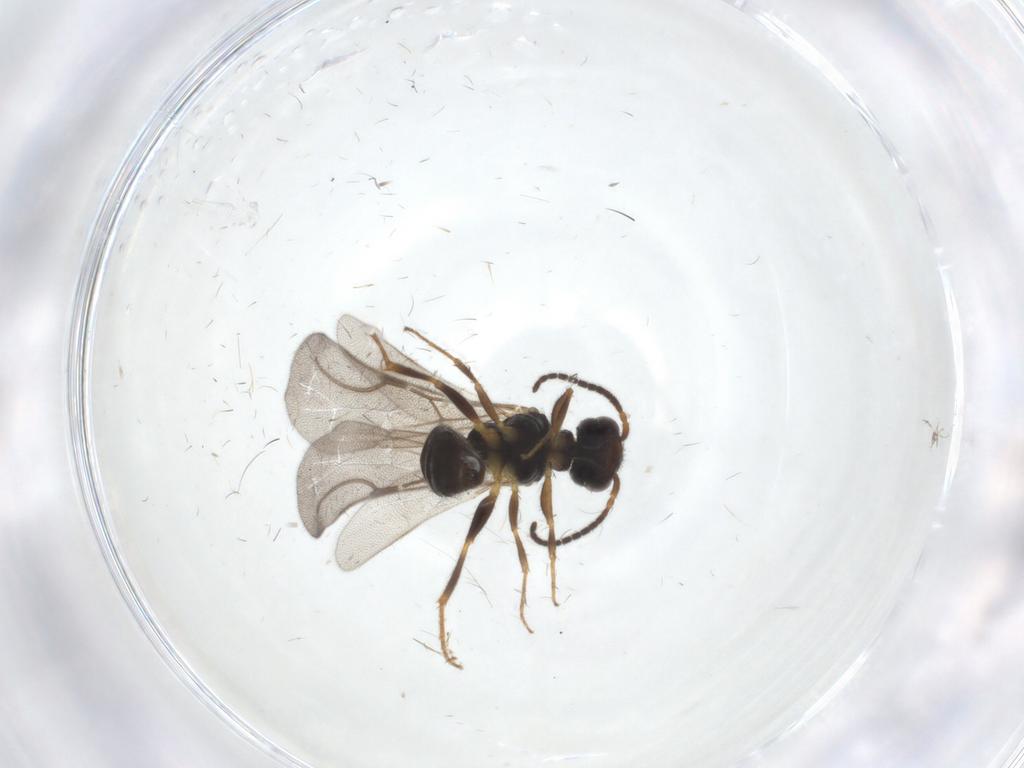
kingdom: Animalia
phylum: Arthropoda
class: Insecta
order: Hymenoptera
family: Bethylidae
